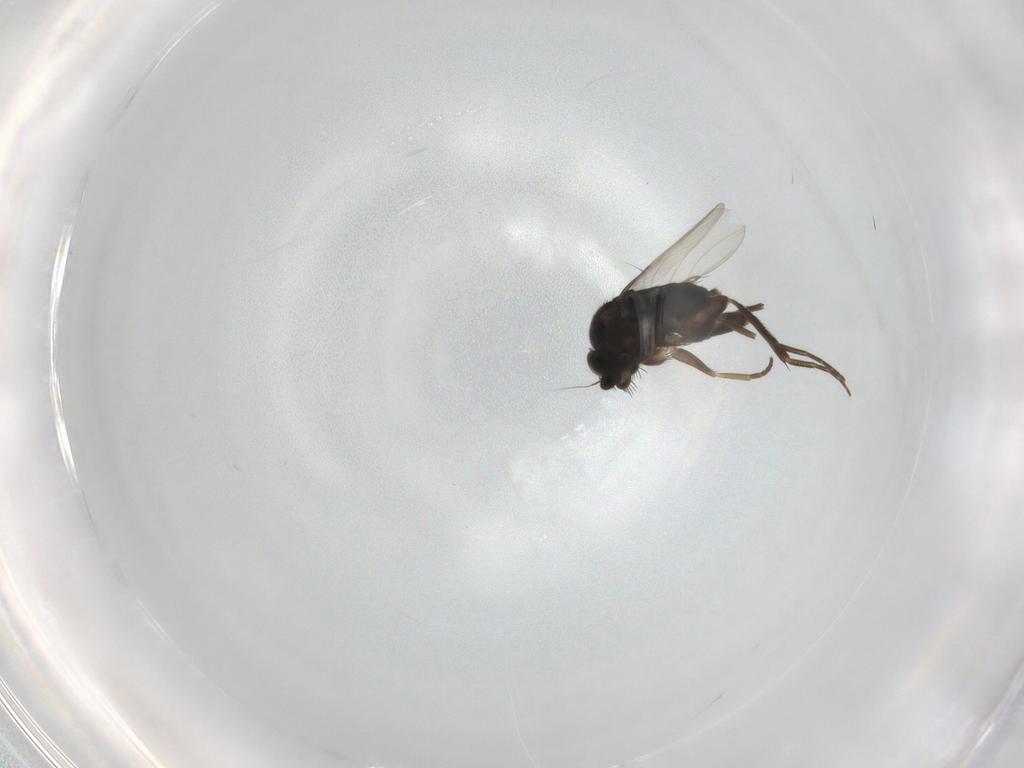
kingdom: Animalia
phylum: Arthropoda
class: Insecta
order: Diptera
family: Phoridae
